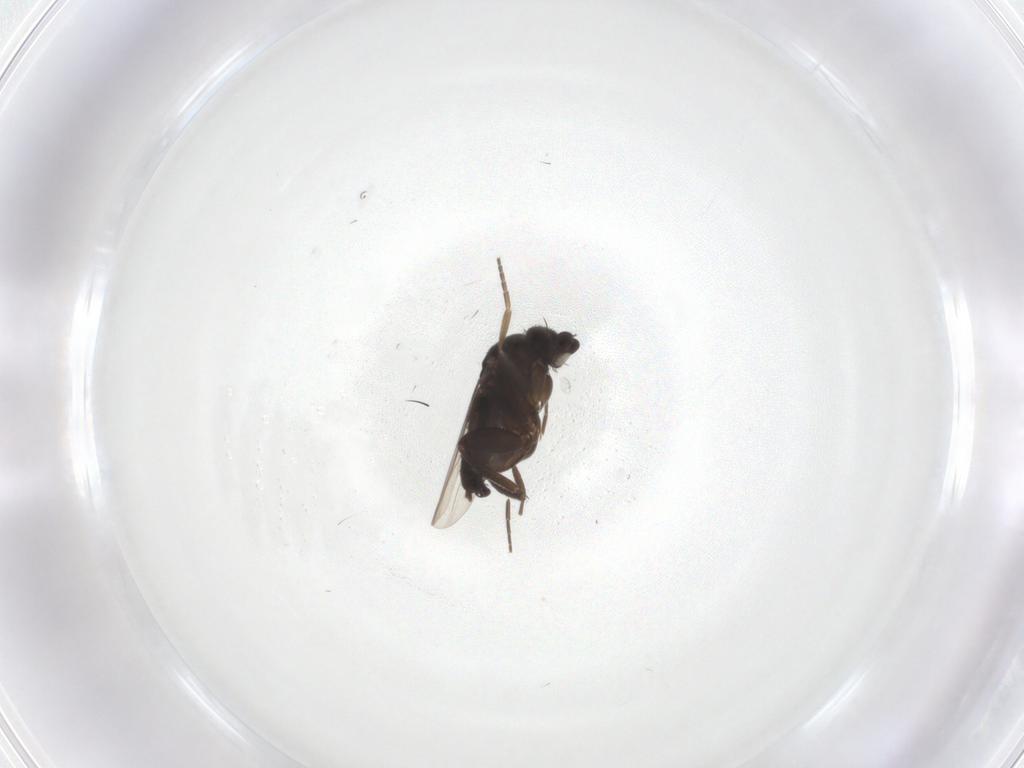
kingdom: Animalia
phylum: Arthropoda
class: Insecta
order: Diptera
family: Phoridae
